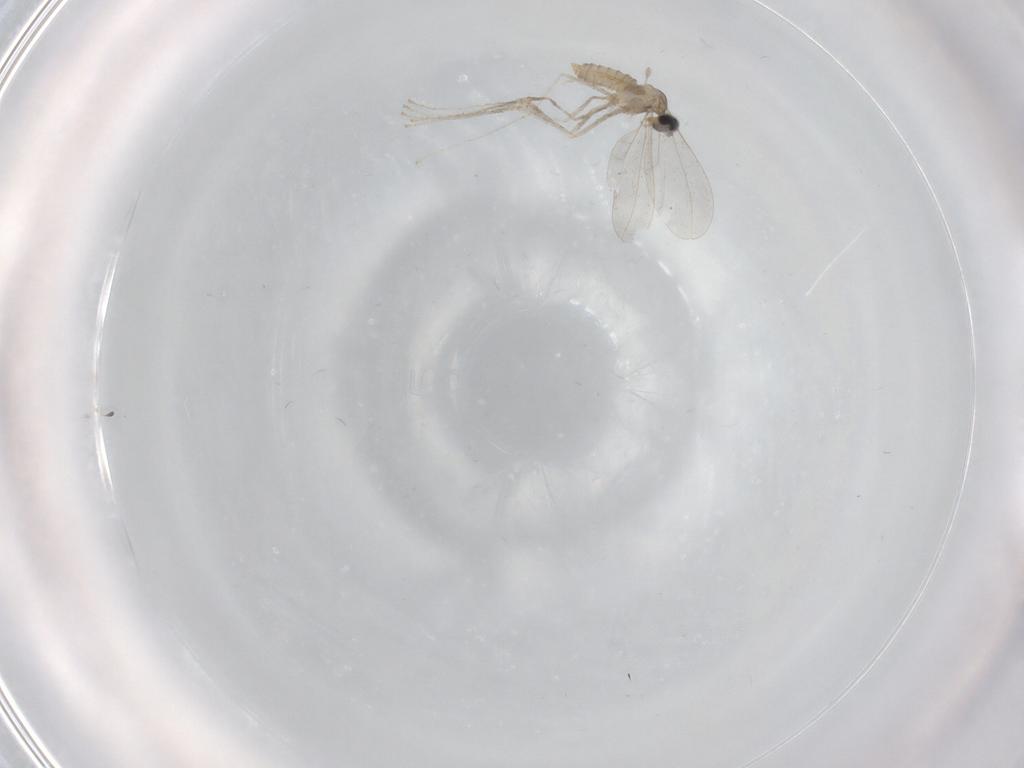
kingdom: Animalia
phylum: Arthropoda
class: Insecta
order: Diptera
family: Cecidomyiidae
